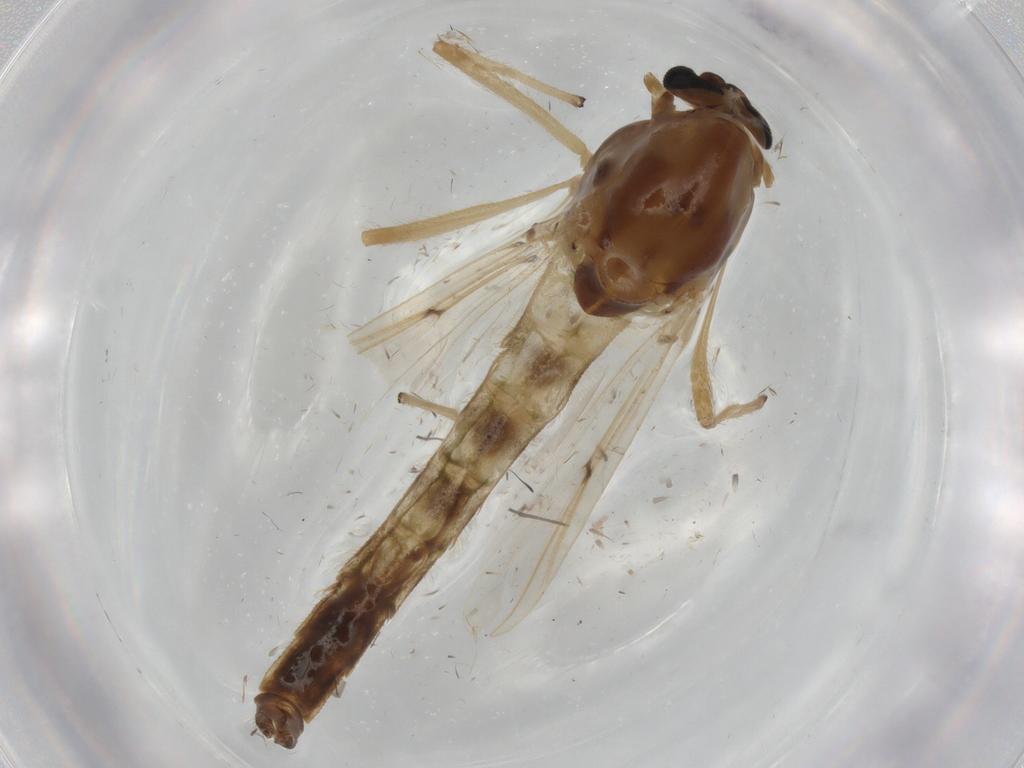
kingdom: Animalia
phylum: Arthropoda
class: Insecta
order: Diptera
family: Chironomidae
